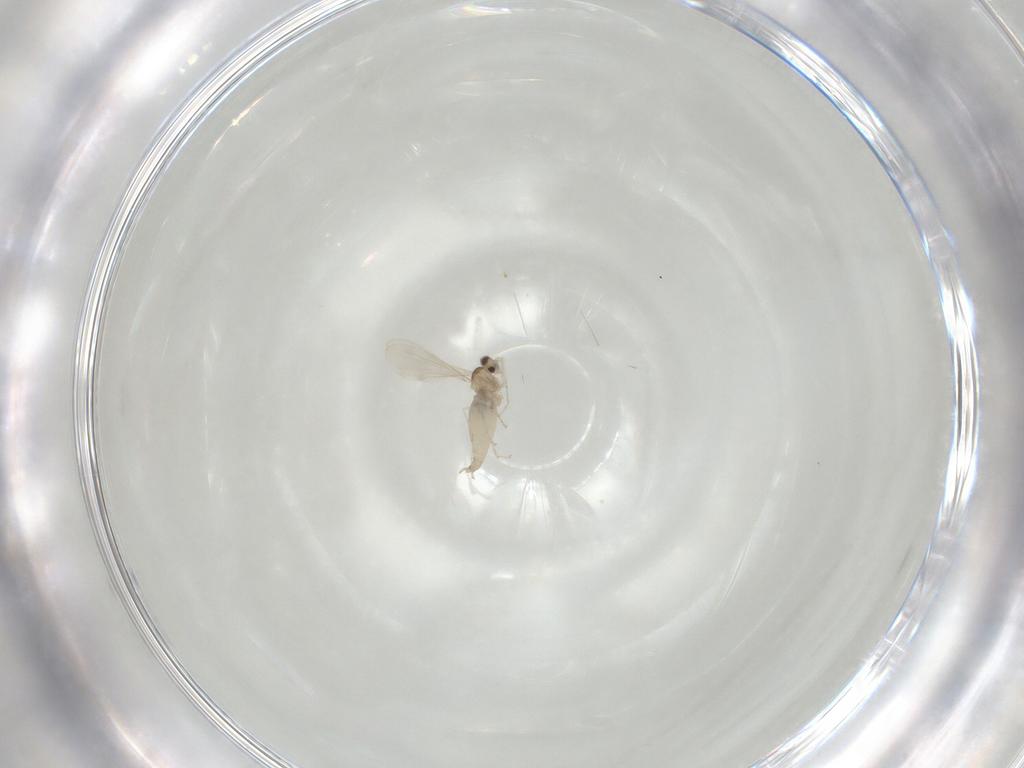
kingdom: Animalia
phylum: Arthropoda
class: Insecta
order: Diptera
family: Cecidomyiidae
